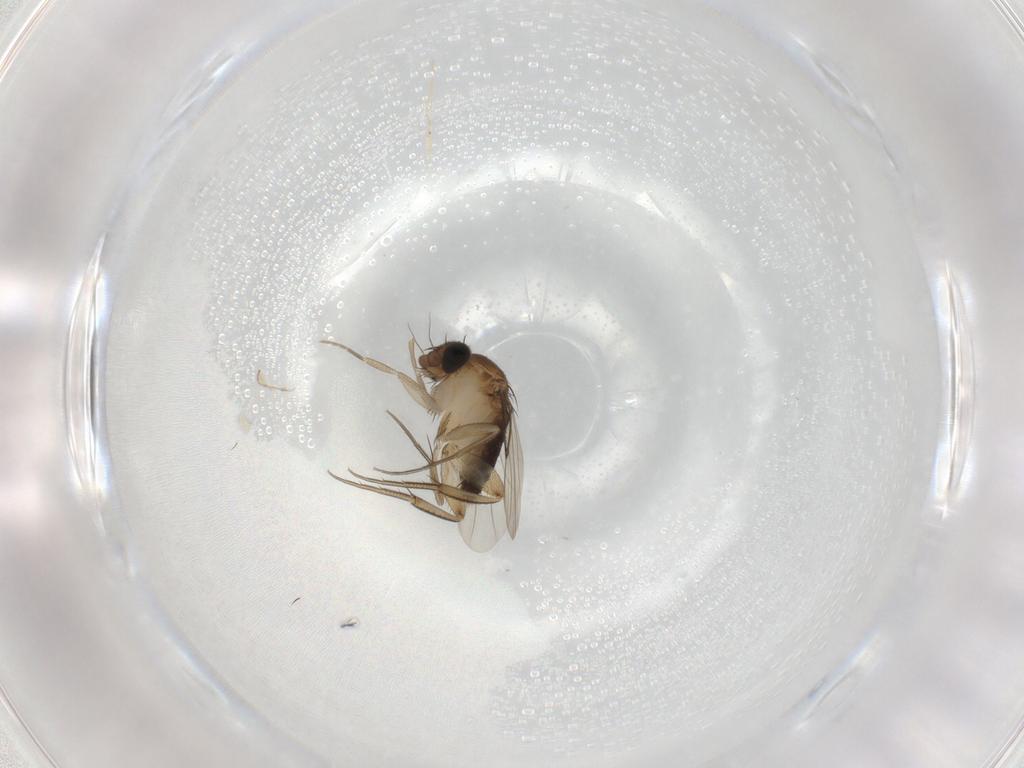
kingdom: Animalia
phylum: Arthropoda
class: Insecta
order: Diptera
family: Phoridae
